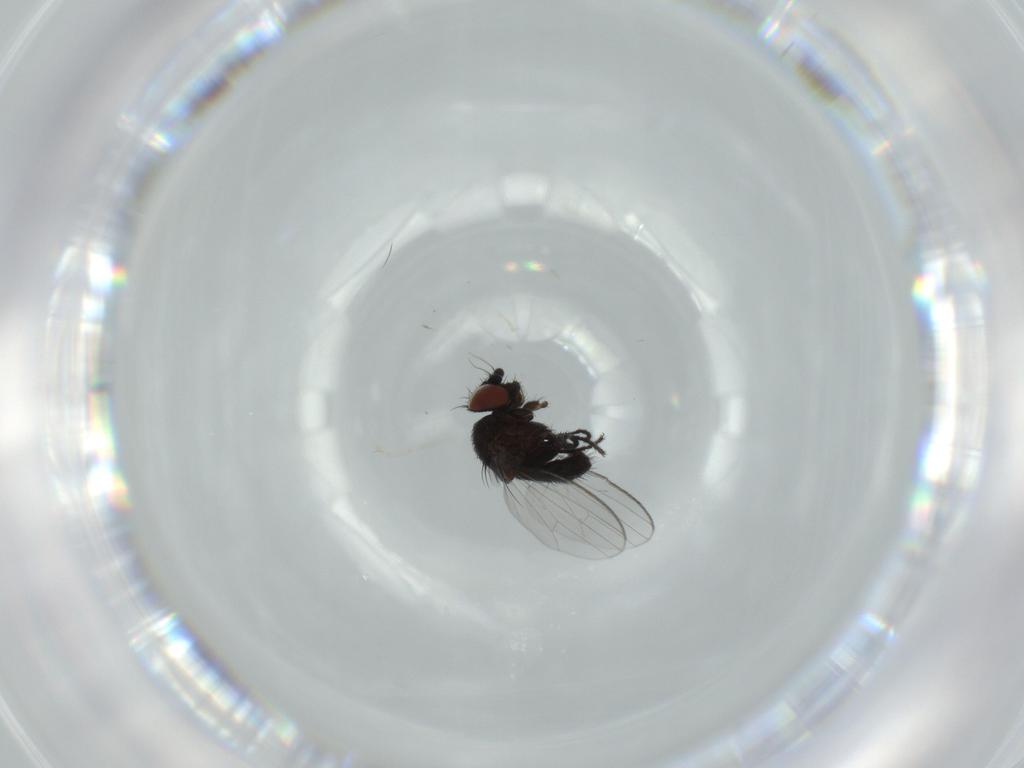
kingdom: Animalia
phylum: Arthropoda
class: Insecta
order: Diptera
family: Milichiidae
